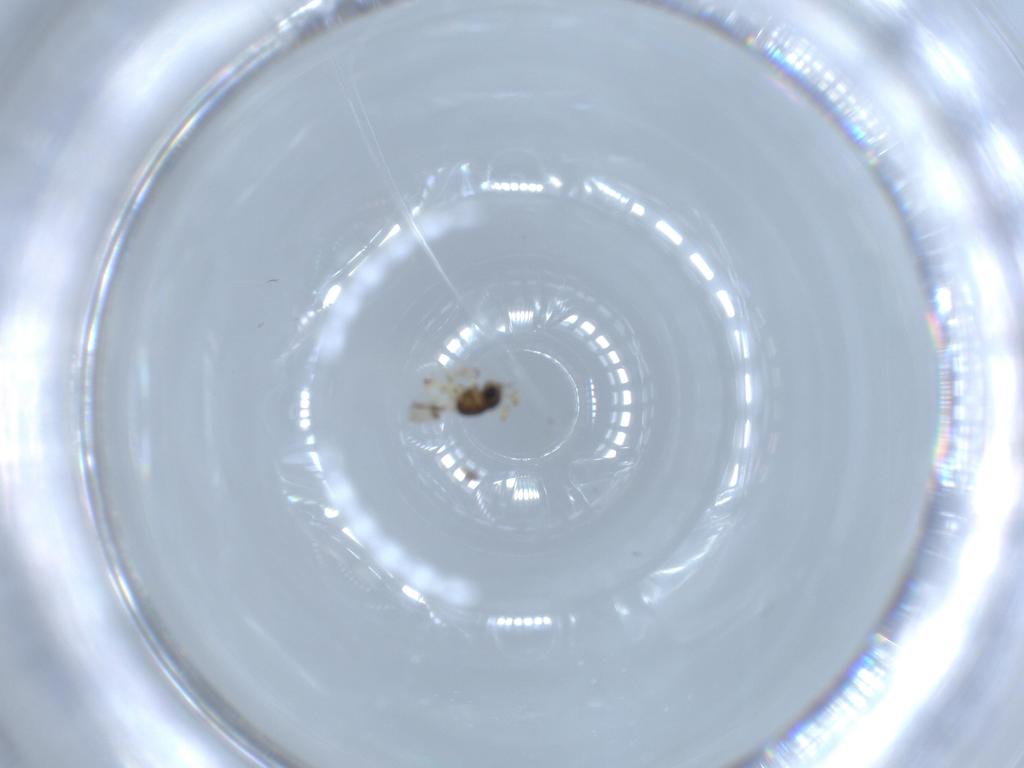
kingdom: Animalia
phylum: Arthropoda
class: Insecta
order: Hymenoptera
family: Scelionidae
